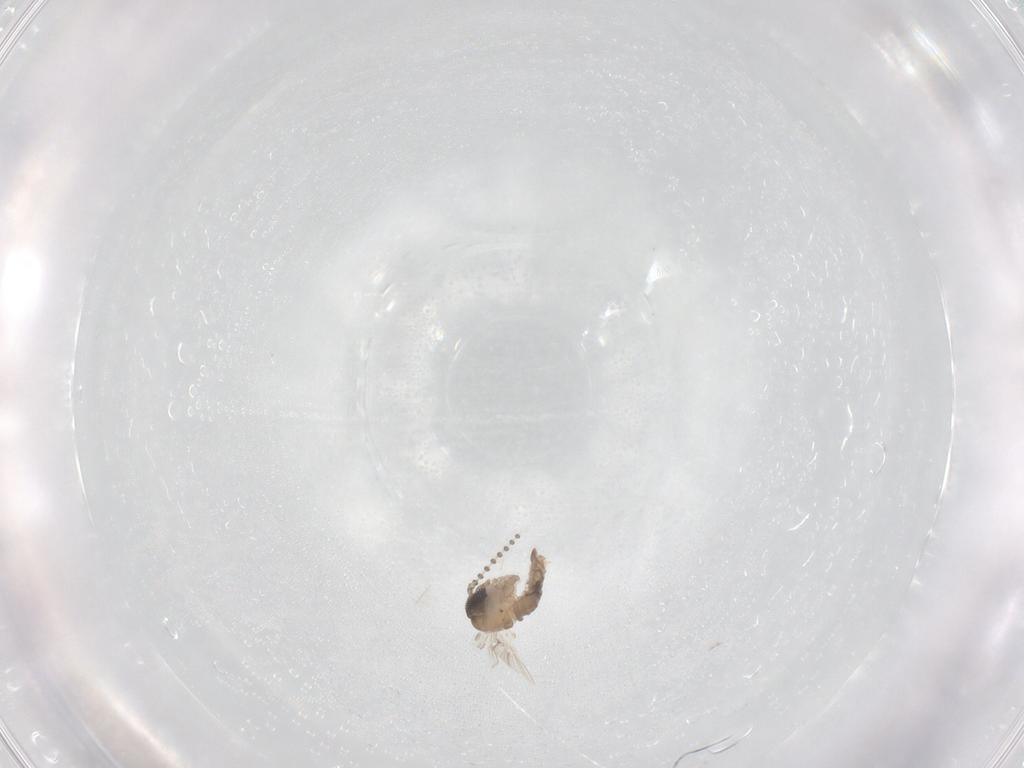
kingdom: Animalia
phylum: Arthropoda
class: Insecta
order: Diptera
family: Psychodidae
